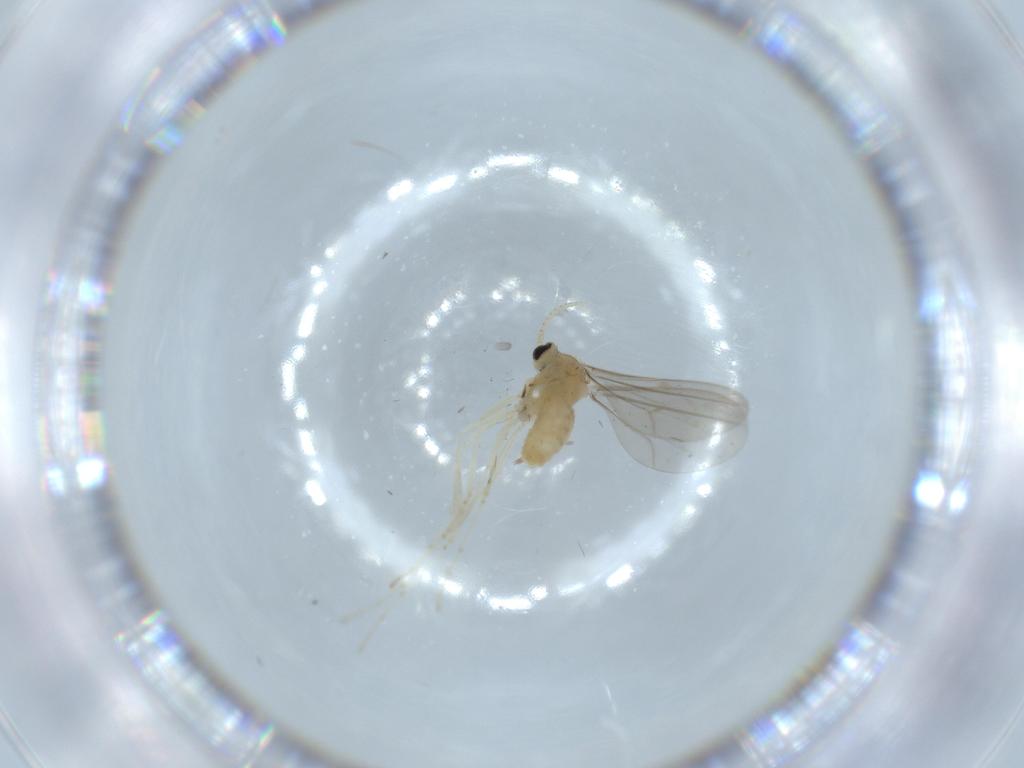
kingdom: Animalia
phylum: Arthropoda
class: Insecta
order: Diptera
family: Cecidomyiidae
